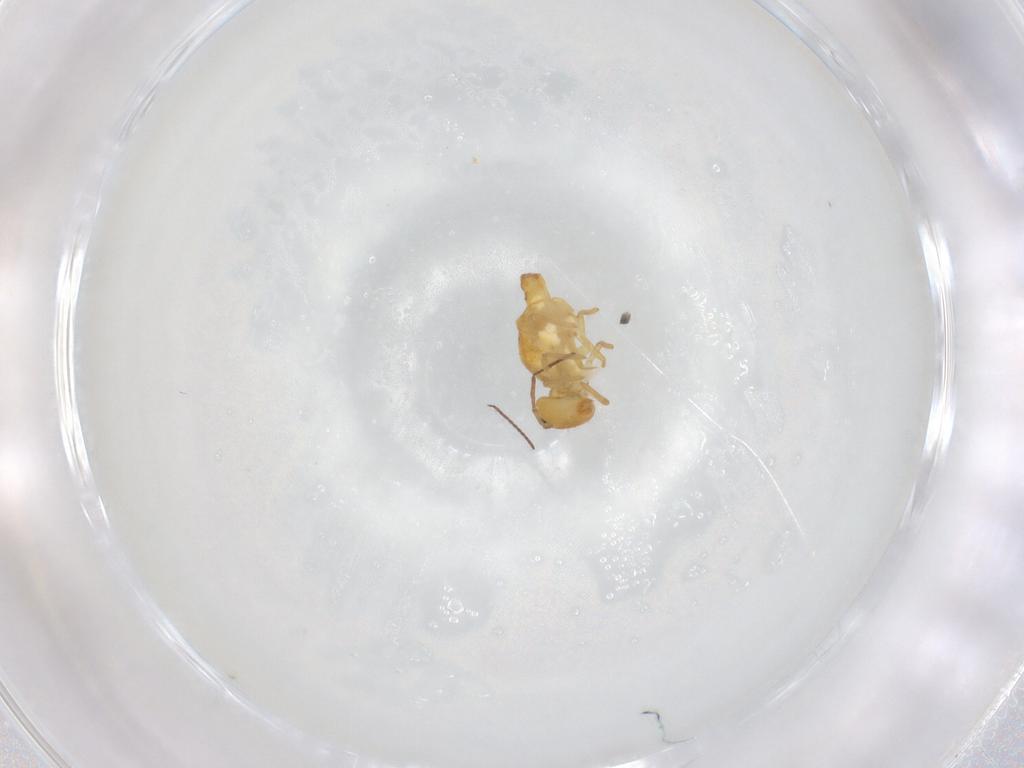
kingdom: Animalia
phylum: Arthropoda
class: Collembola
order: Symphypleona
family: Bourletiellidae
